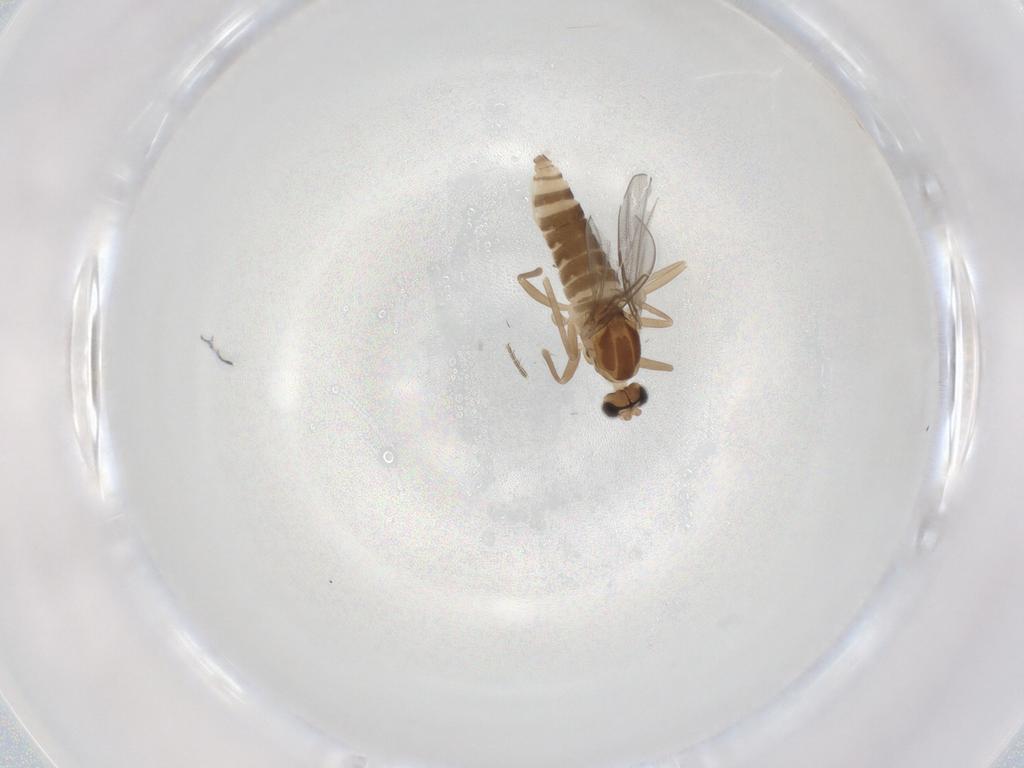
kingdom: Animalia
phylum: Arthropoda
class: Insecta
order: Diptera
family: Cecidomyiidae
